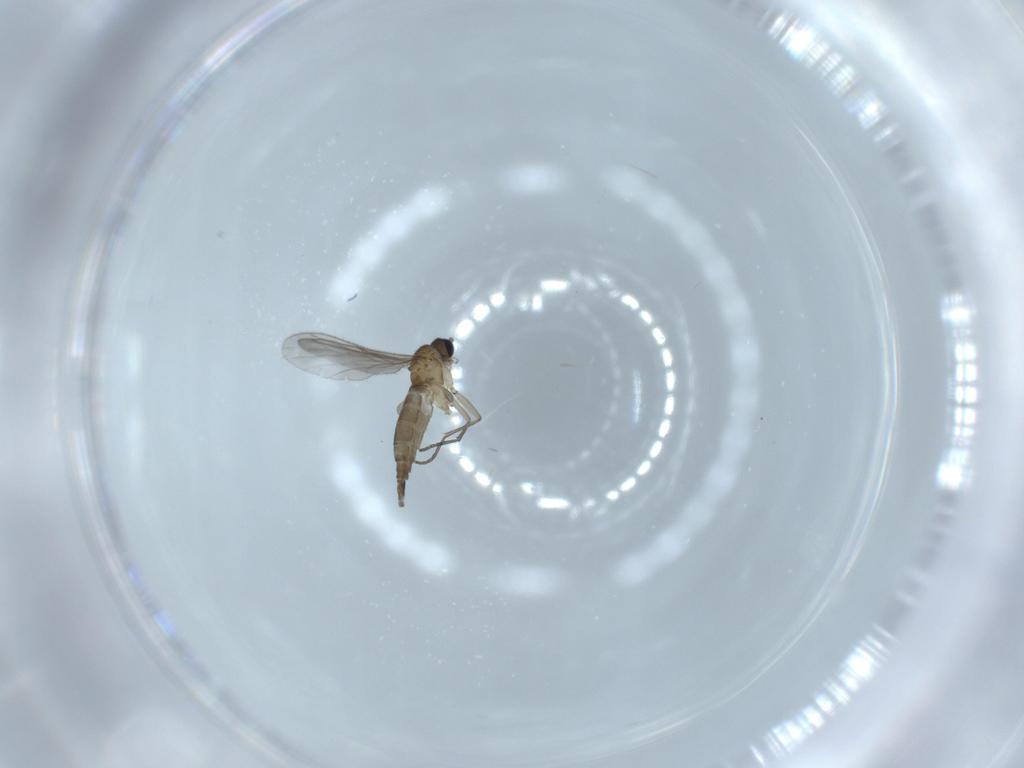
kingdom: Animalia
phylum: Arthropoda
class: Insecta
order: Diptera
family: Sciaridae
